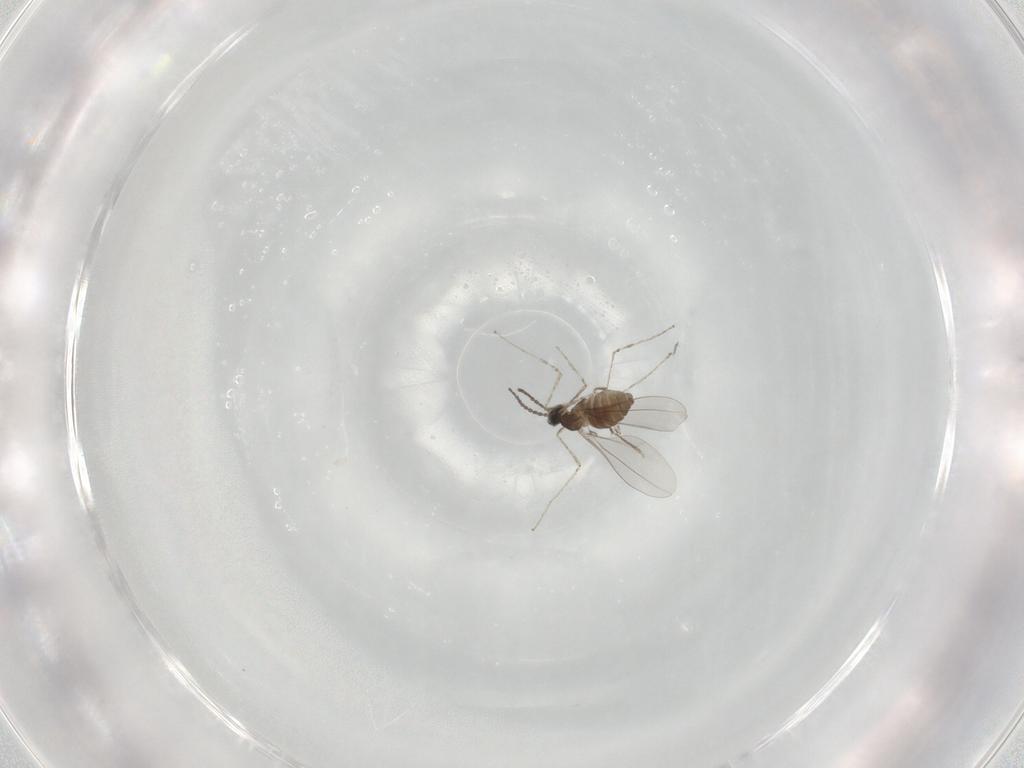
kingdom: Animalia
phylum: Arthropoda
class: Insecta
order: Diptera
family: Cecidomyiidae
